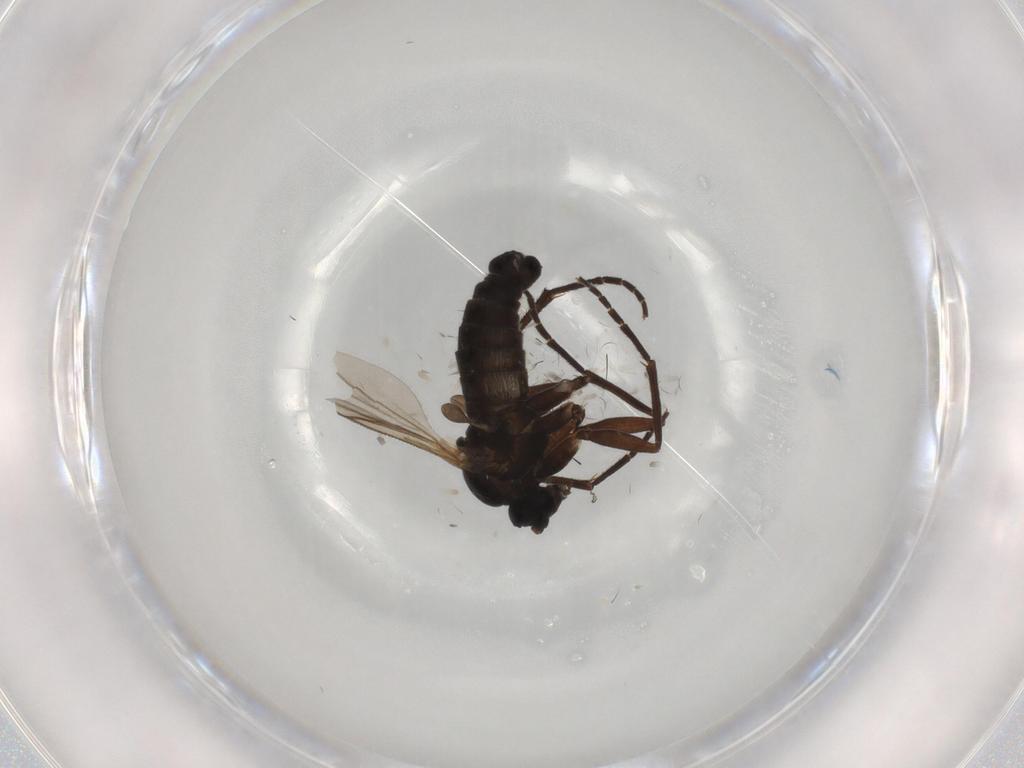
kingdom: Animalia
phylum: Arthropoda
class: Insecta
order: Diptera
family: Sciaridae
